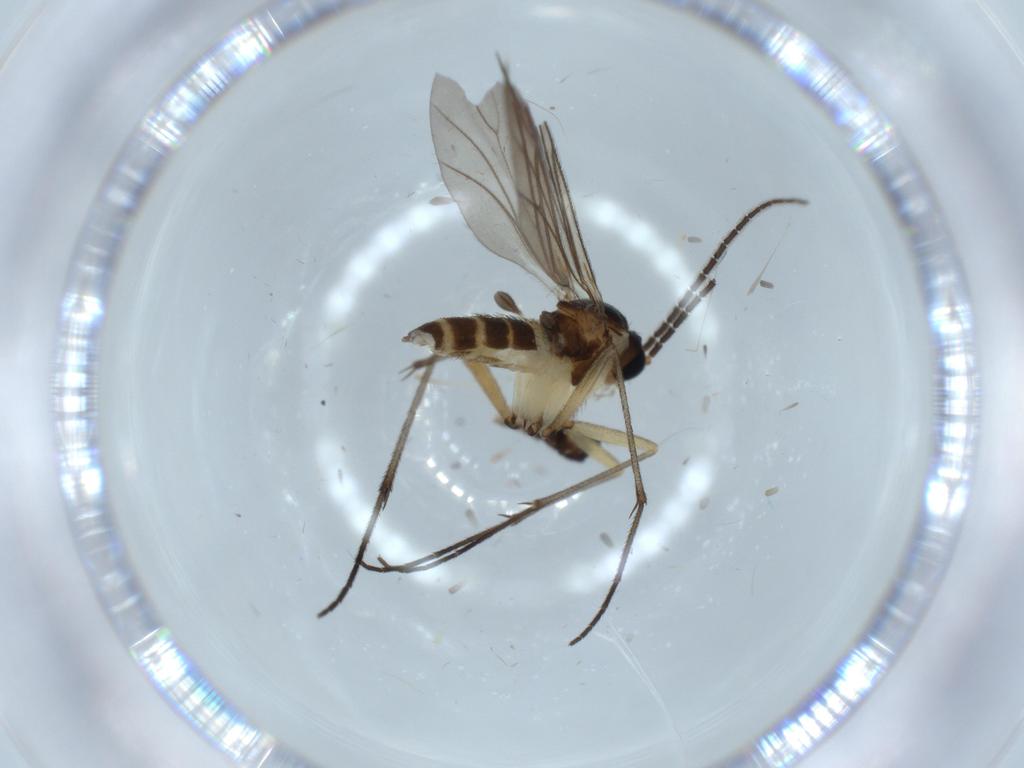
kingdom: Animalia
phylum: Arthropoda
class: Insecta
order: Diptera
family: Sciaridae
